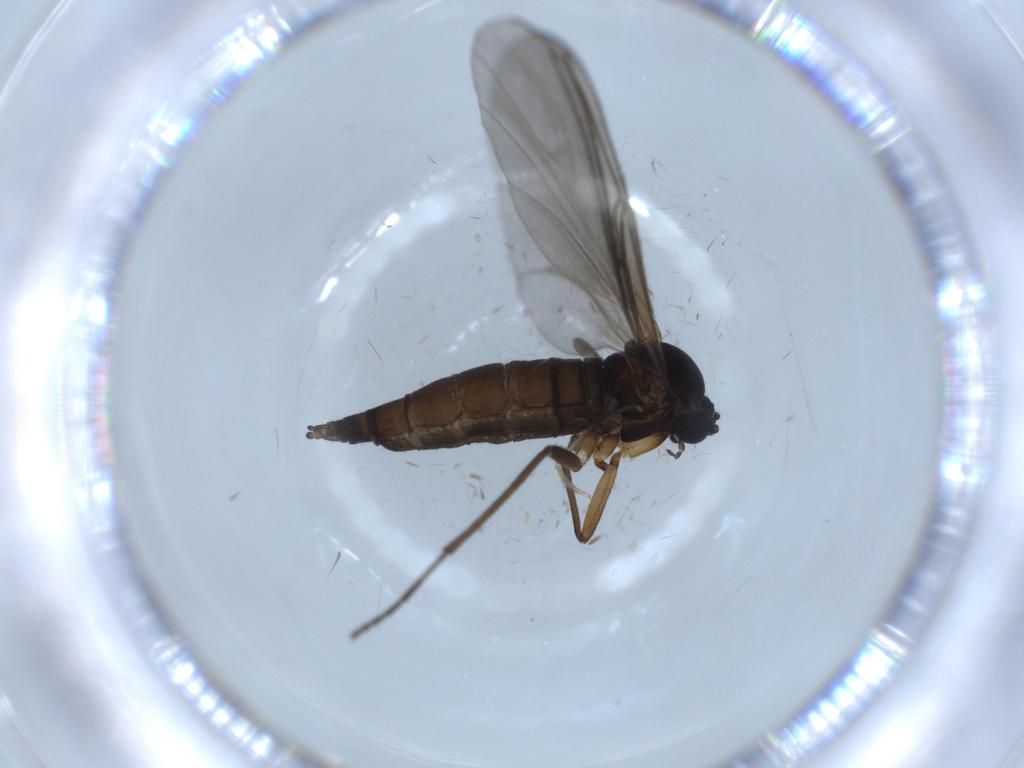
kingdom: Animalia
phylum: Arthropoda
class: Insecta
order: Diptera
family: Sciaridae
